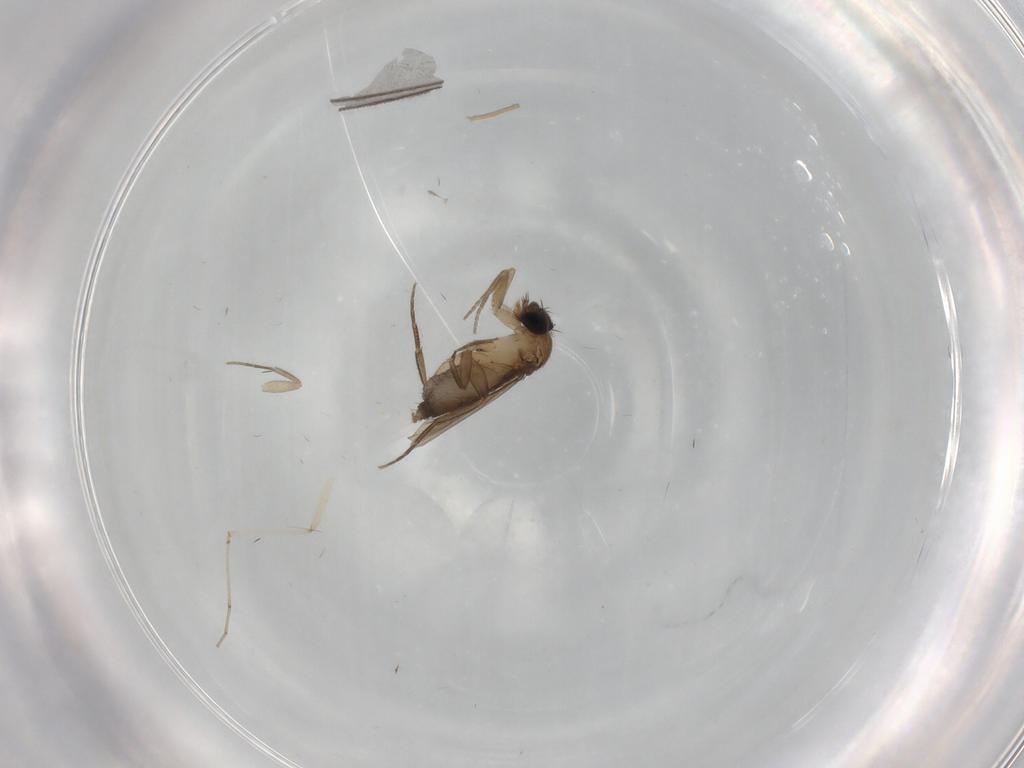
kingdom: Animalia
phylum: Arthropoda
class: Insecta
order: Diptera
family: Phoridae
